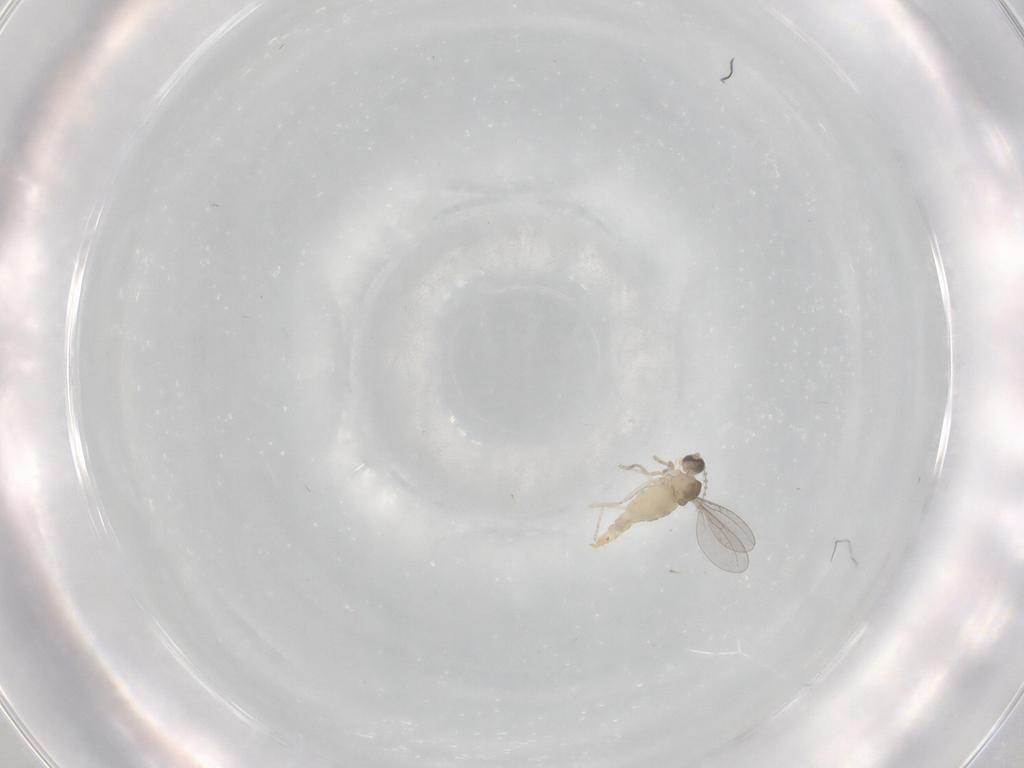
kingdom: Animalia
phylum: Arthropoda
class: Insecta
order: Diptera
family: Cecidomyiidae
